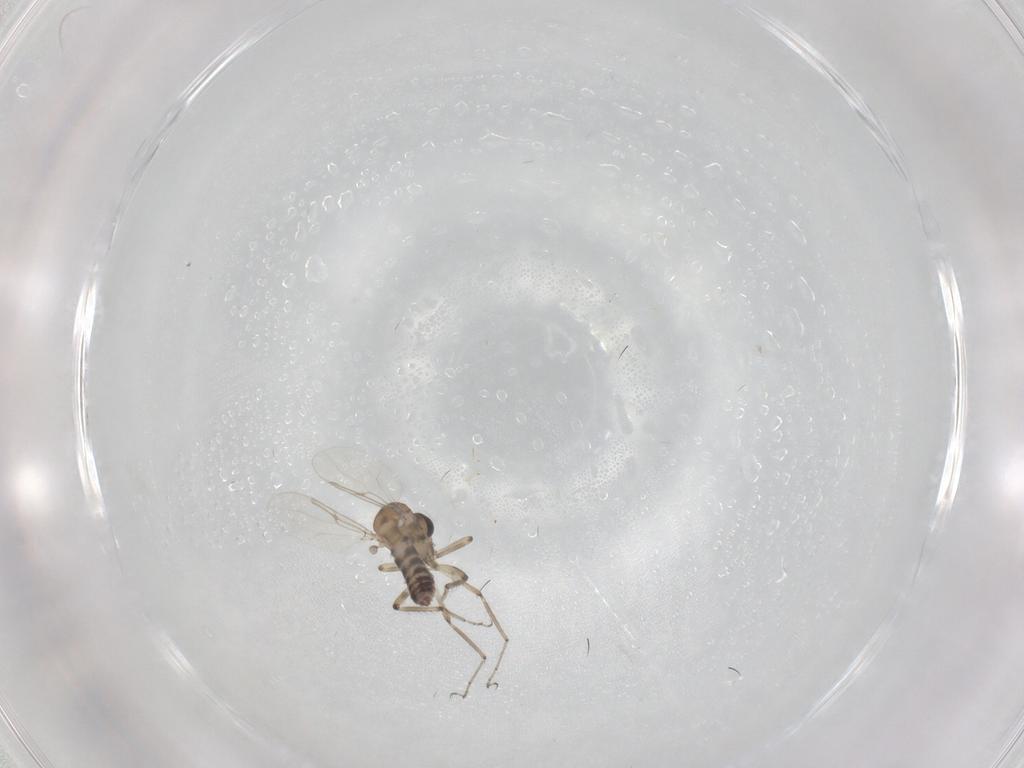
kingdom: Animalia
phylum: Arthropoda
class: Insecta
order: Diptera
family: Ceratopogonidae
